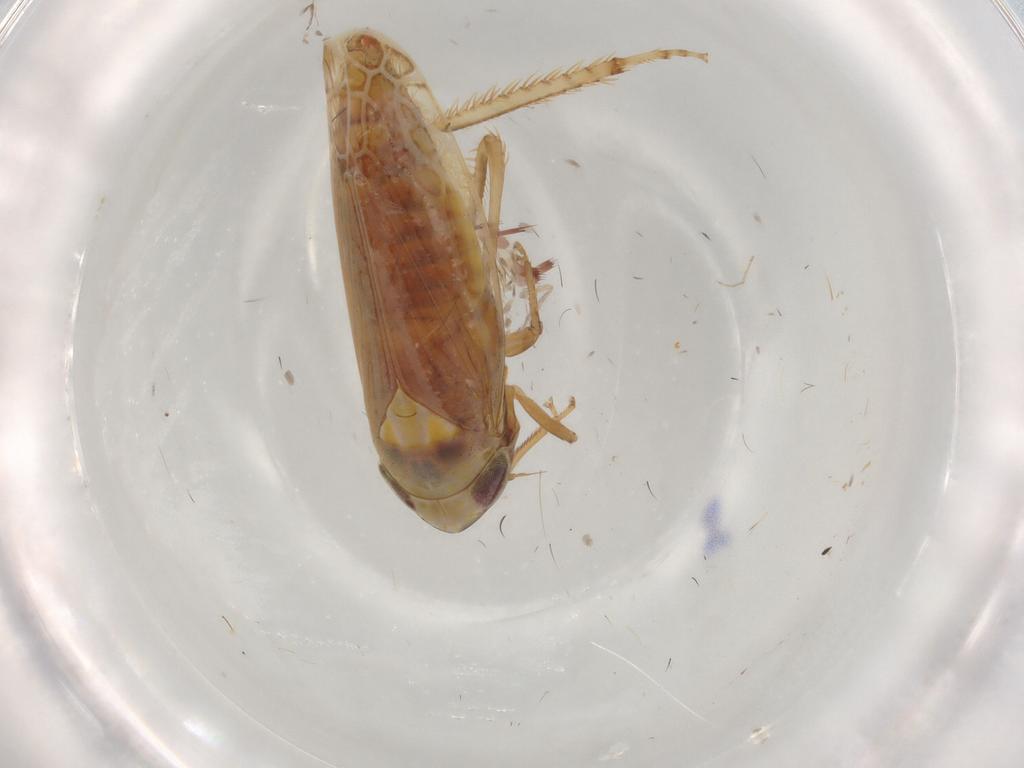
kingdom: Animalia
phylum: Arthropoda
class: Insecta
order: Hemiptera
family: Cicadellidae
